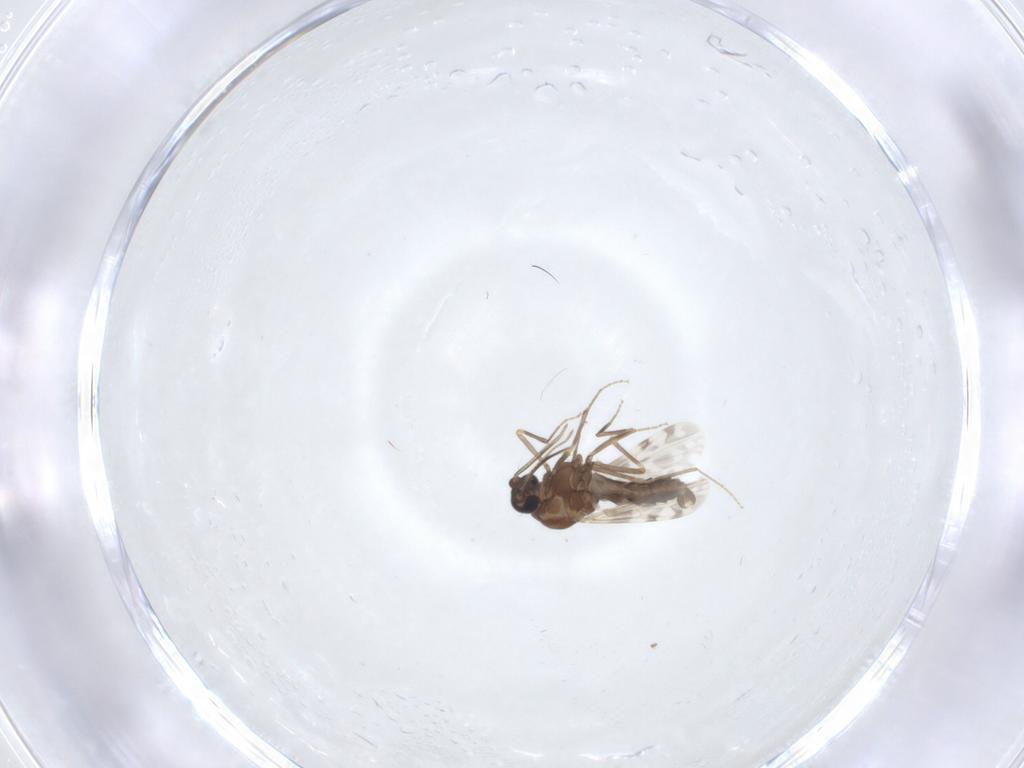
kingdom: Animalia
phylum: Arthropoda
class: Insecta
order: Diptera
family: Ceratopogonidae
